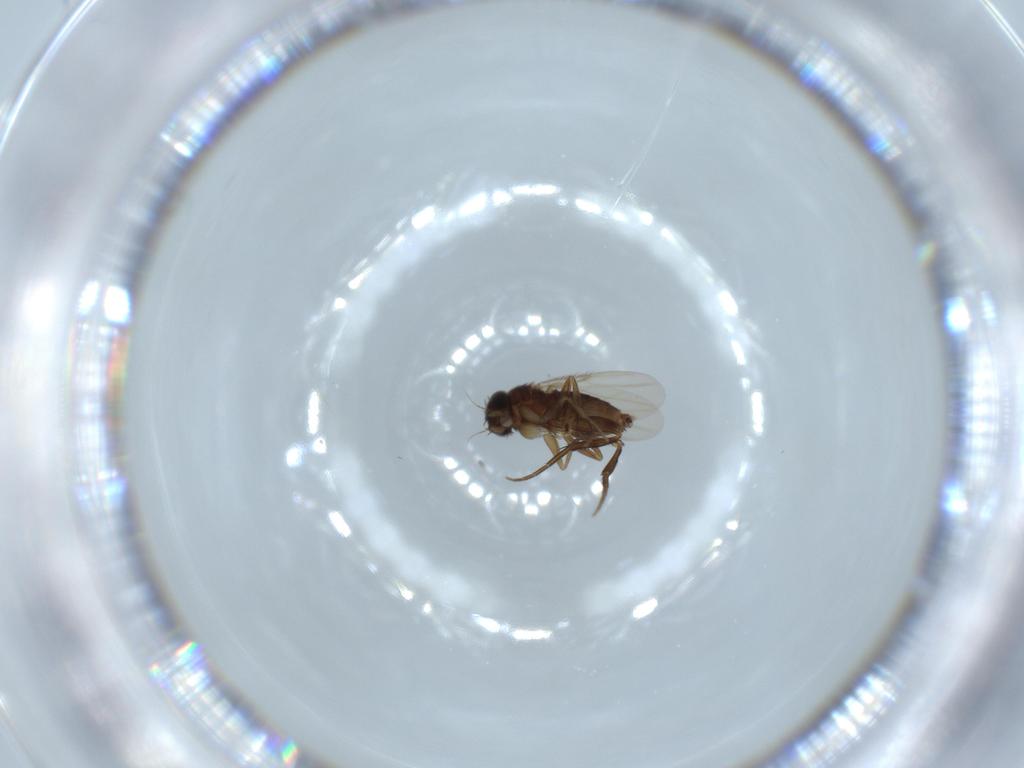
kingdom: Animalia
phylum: Arthropoda
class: Insecta
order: Diptera
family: Phoridae
